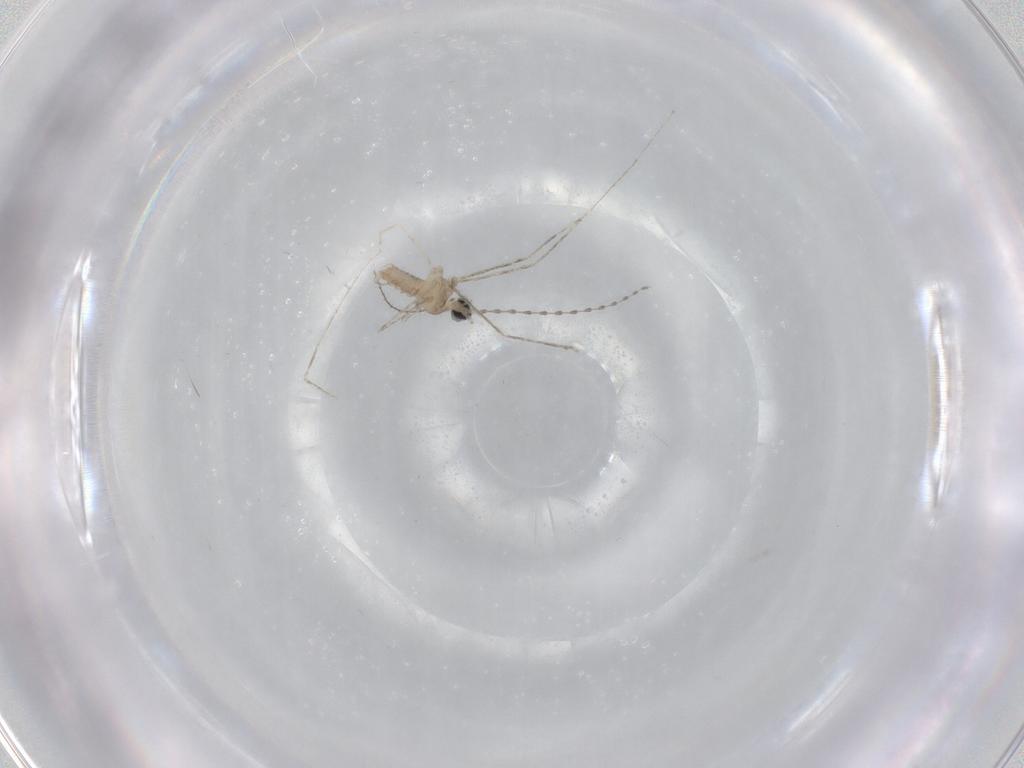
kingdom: Animalia
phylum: Arthropoda
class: Insecta
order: Diptera
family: Cecidomyiidae
